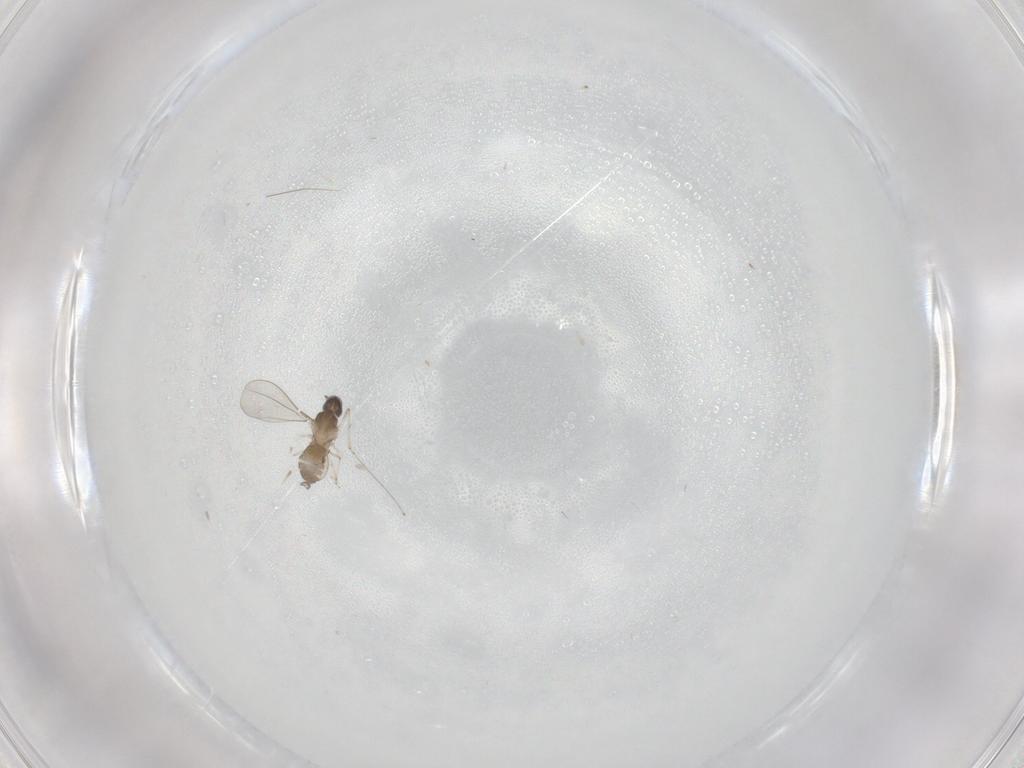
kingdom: Animalia
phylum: Arthropoda
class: Insecta
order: Diptera
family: Cecidomyiidae
